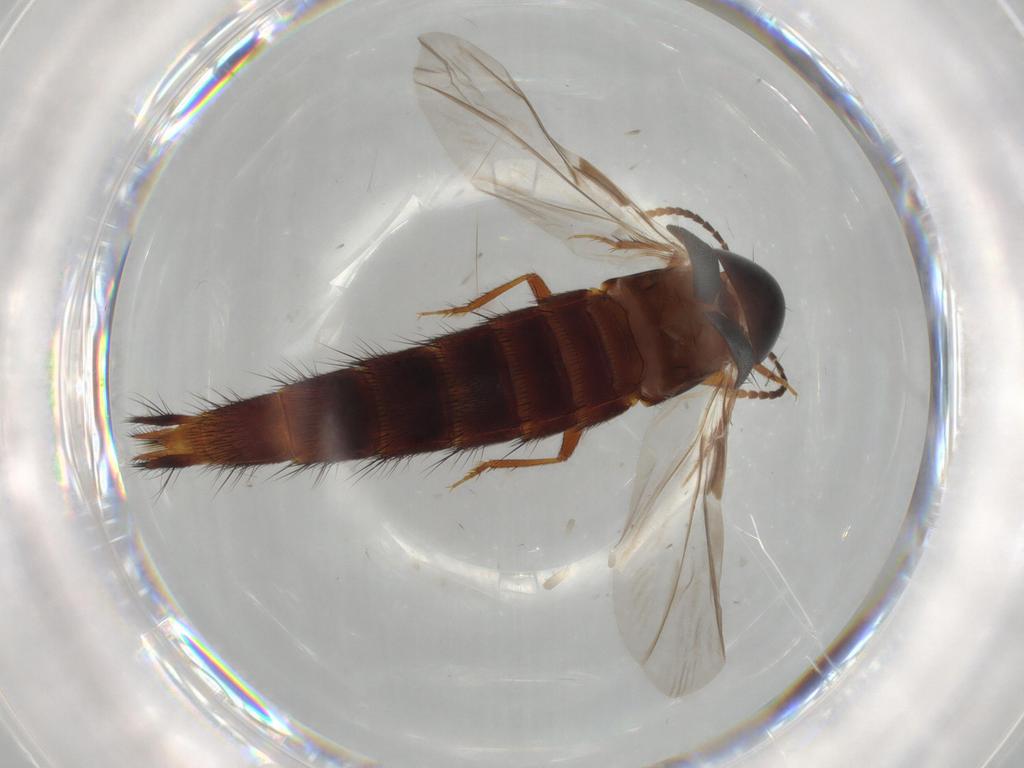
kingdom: Animalia
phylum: Arthropoda
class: Insecta
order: Coleoptera
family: Staphylinidae
